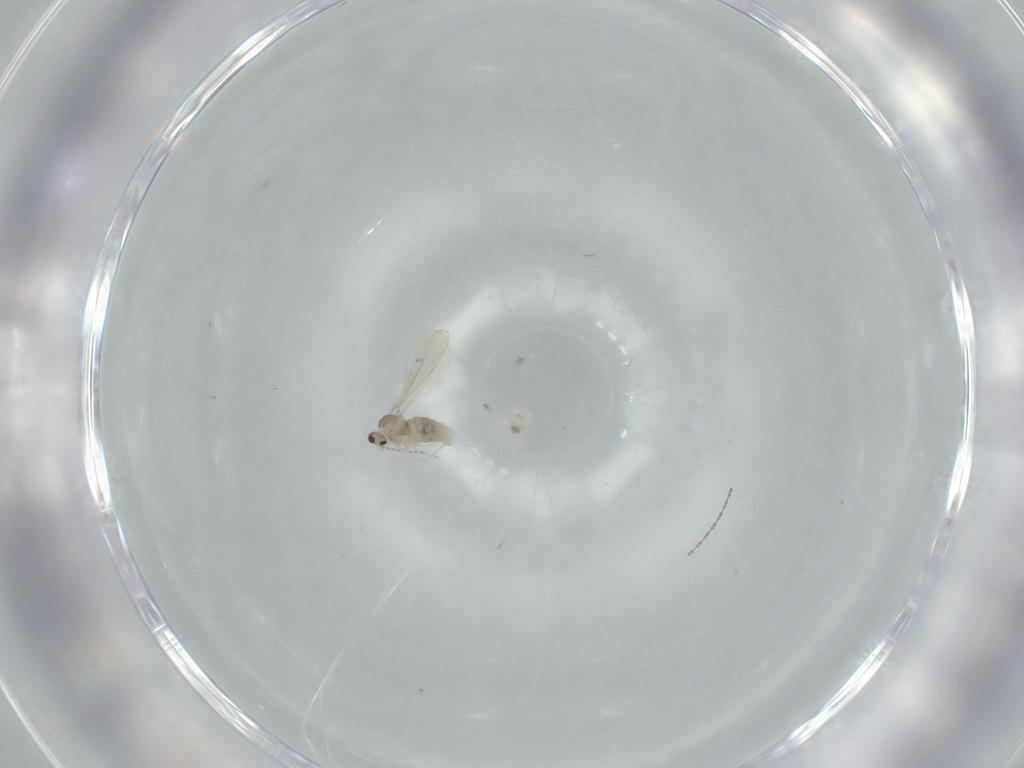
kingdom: Animalia
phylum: Arthropoda
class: Insecta
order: Diptera
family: Cecidomyiidae
